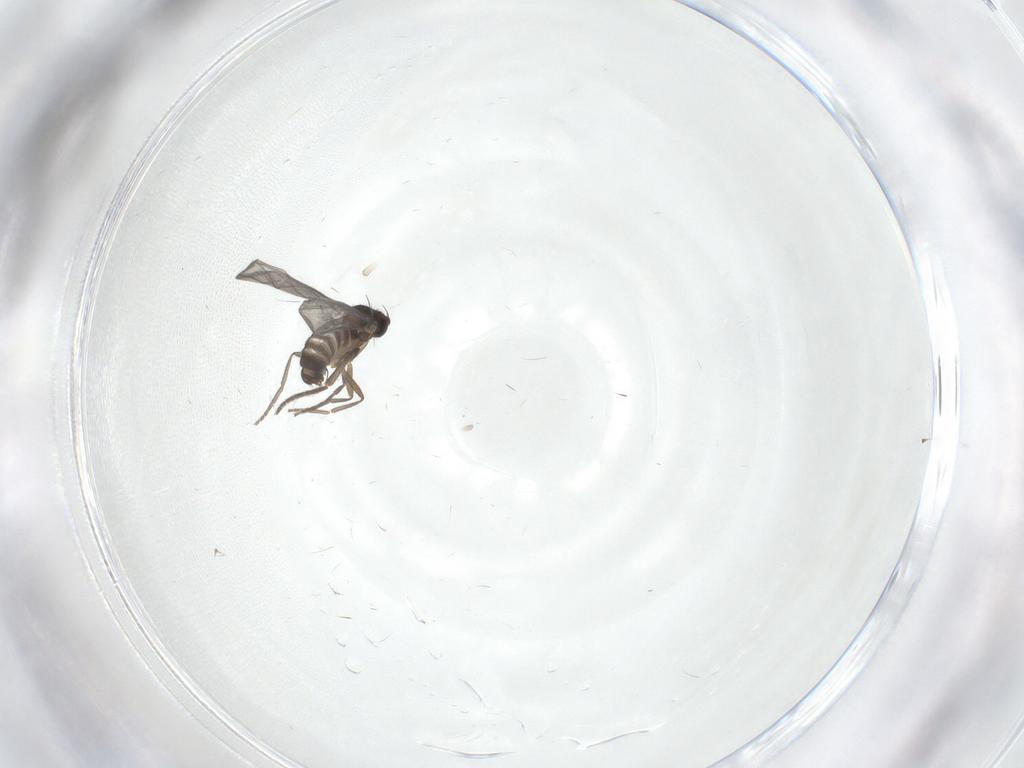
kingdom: Animalia
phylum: Arthropoda
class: Insecta
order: Diptera
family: Phoridae
